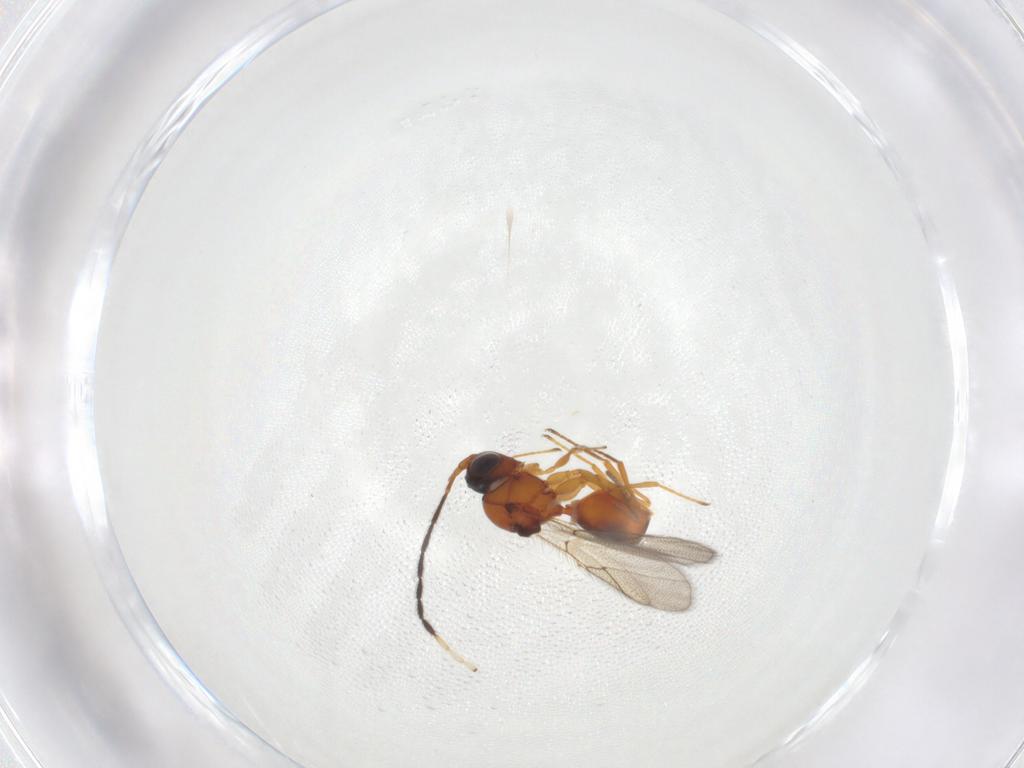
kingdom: Animalia
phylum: Arthropoda
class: Insecta
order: Hymenoptera
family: Figitidae
